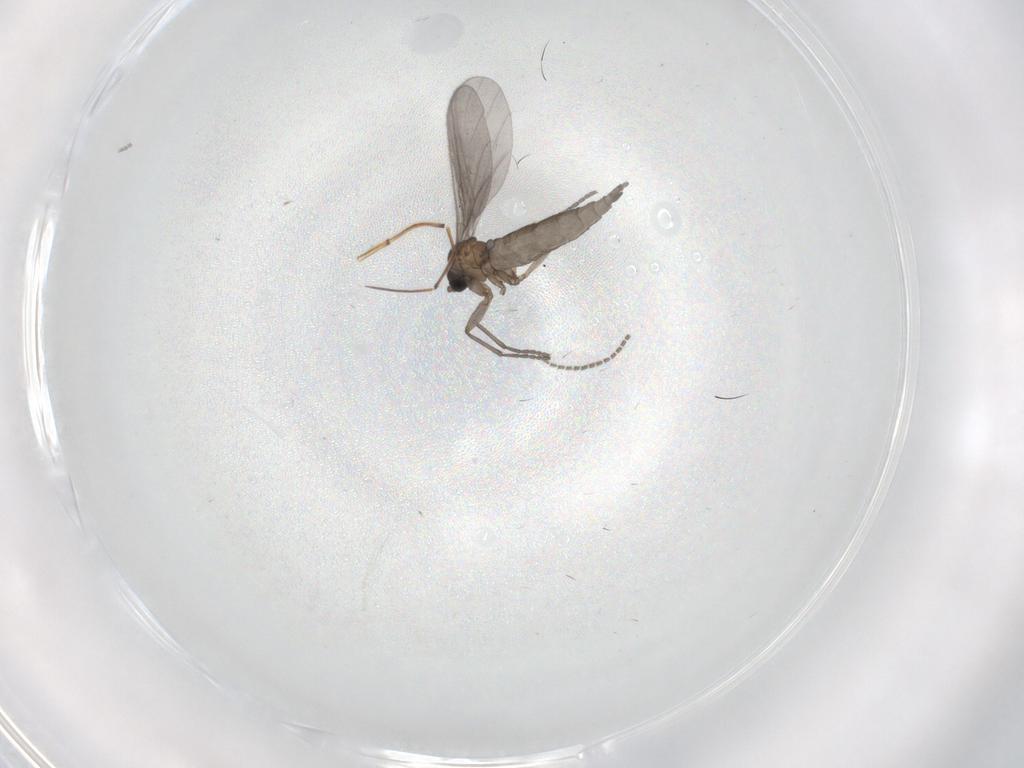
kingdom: Animalia
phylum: Arthropoda
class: Insecta
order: Diptera
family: Sciaridae
